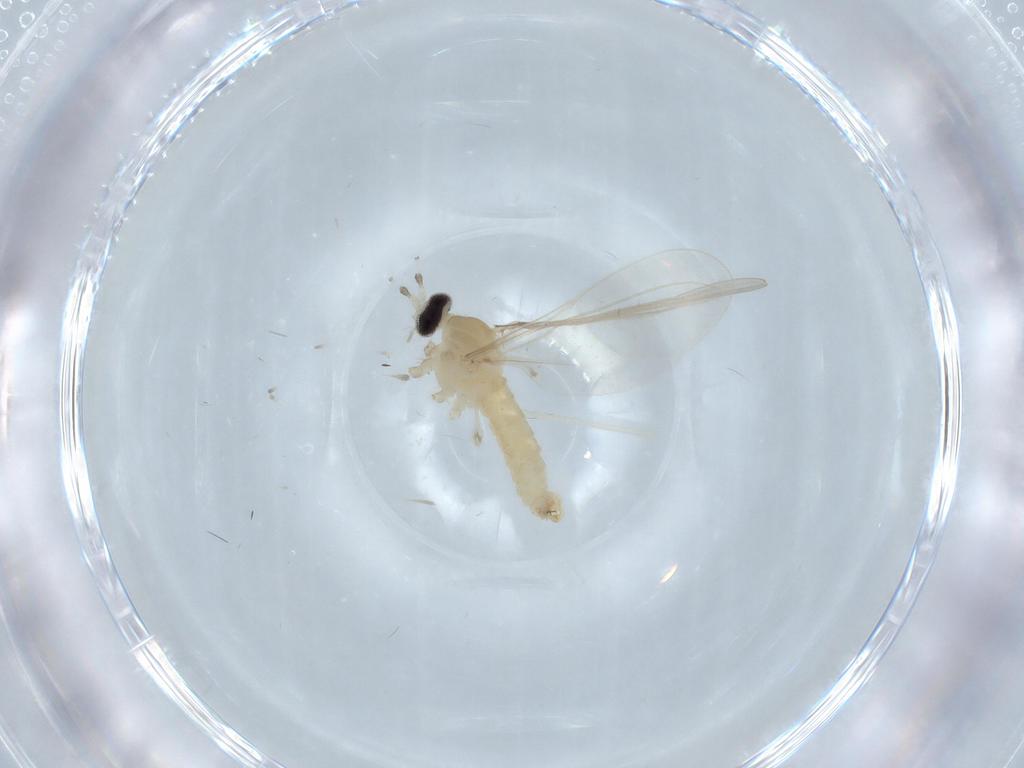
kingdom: Animalia
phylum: Arthropoda
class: Insecta
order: Diptera
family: Cecidomyiidae
